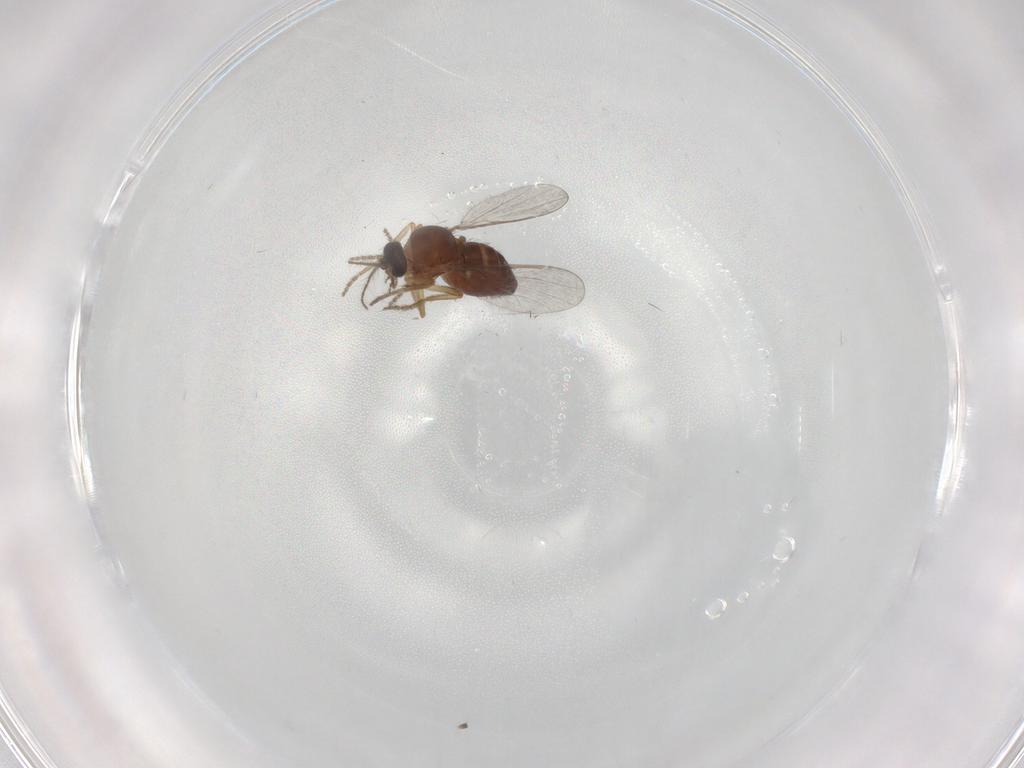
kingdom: Animalia
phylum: Arthropoda
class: Insecta
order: Diptera
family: Ceratopogonidae
